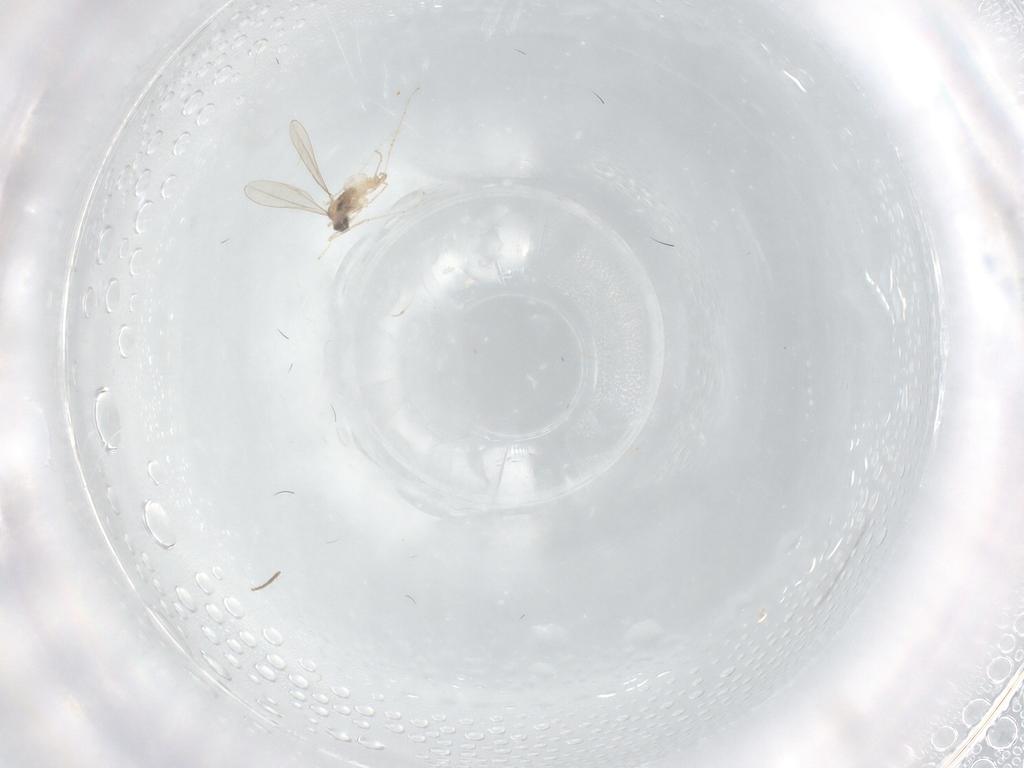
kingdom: Animalia
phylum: Arthropoda
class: Insecta
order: Diptera
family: Cecidomyiidae
